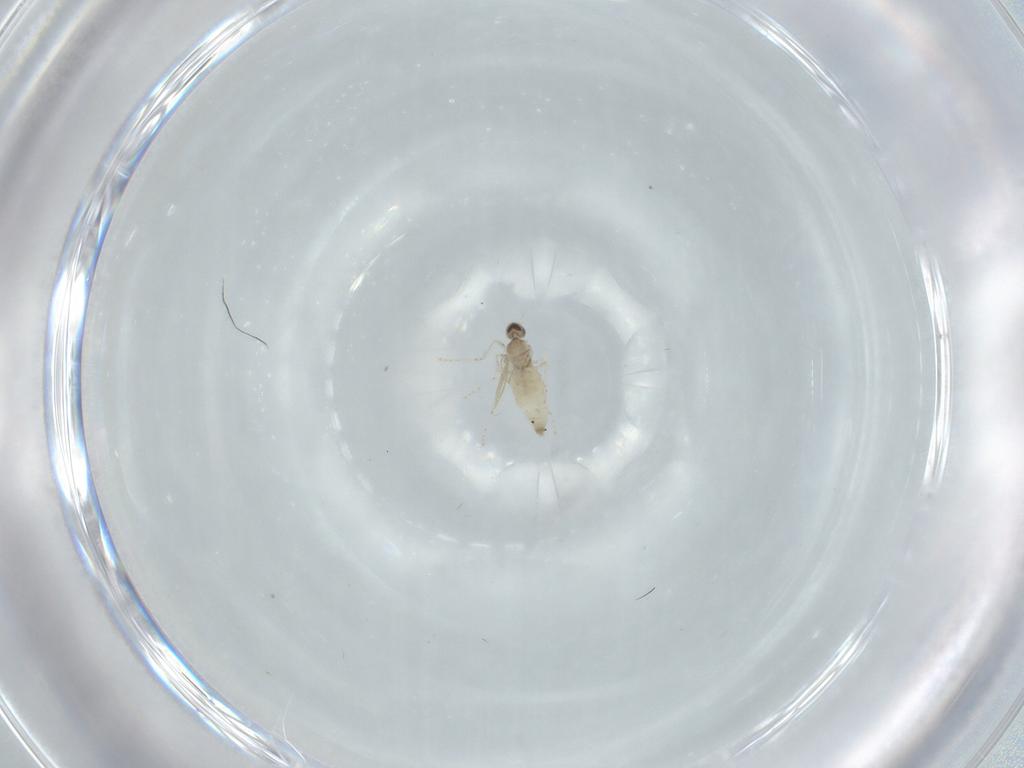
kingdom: Animalia
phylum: Arthropoda
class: Insecta
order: Diptera
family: Cecidomyiidae
